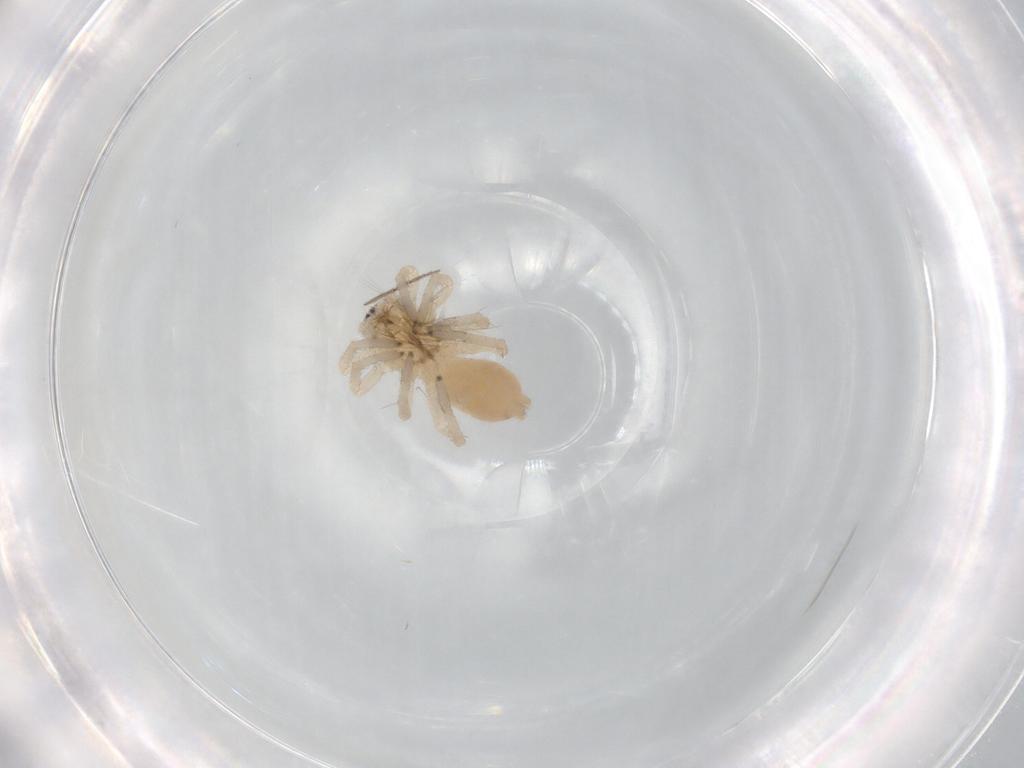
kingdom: Animalia
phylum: Arthropoda
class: Arachnida
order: Araneae
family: Clubionidae
